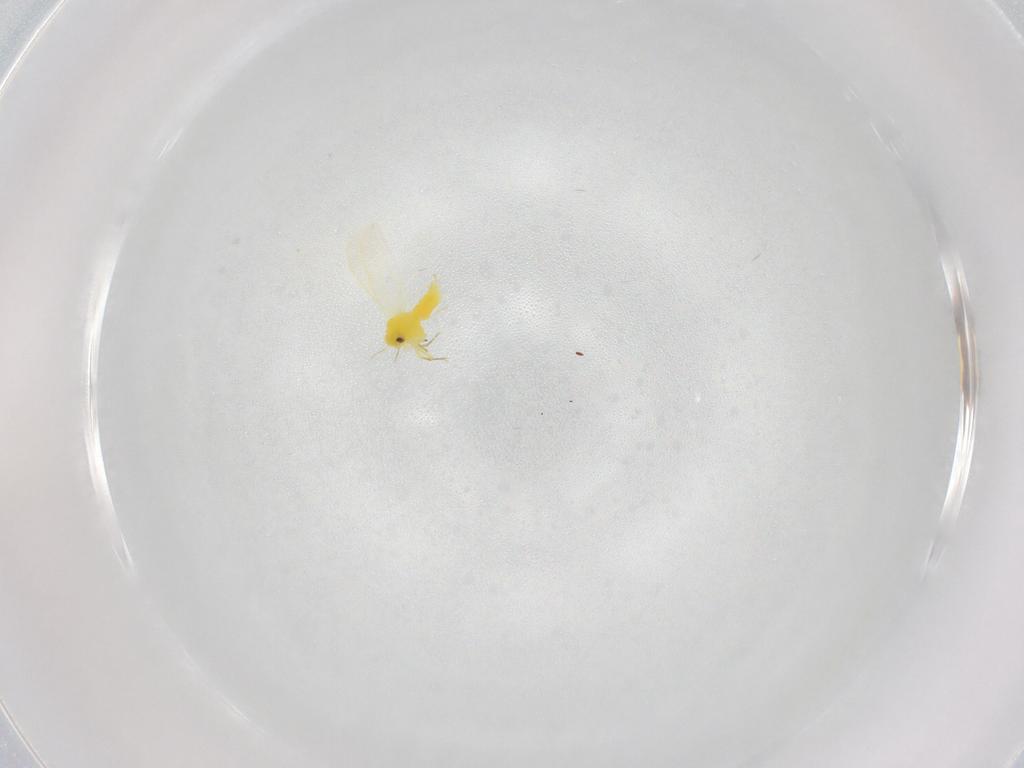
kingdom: Animalia
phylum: Arthropoda
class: Insecta
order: Hemiptera
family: Aleyrodidae
